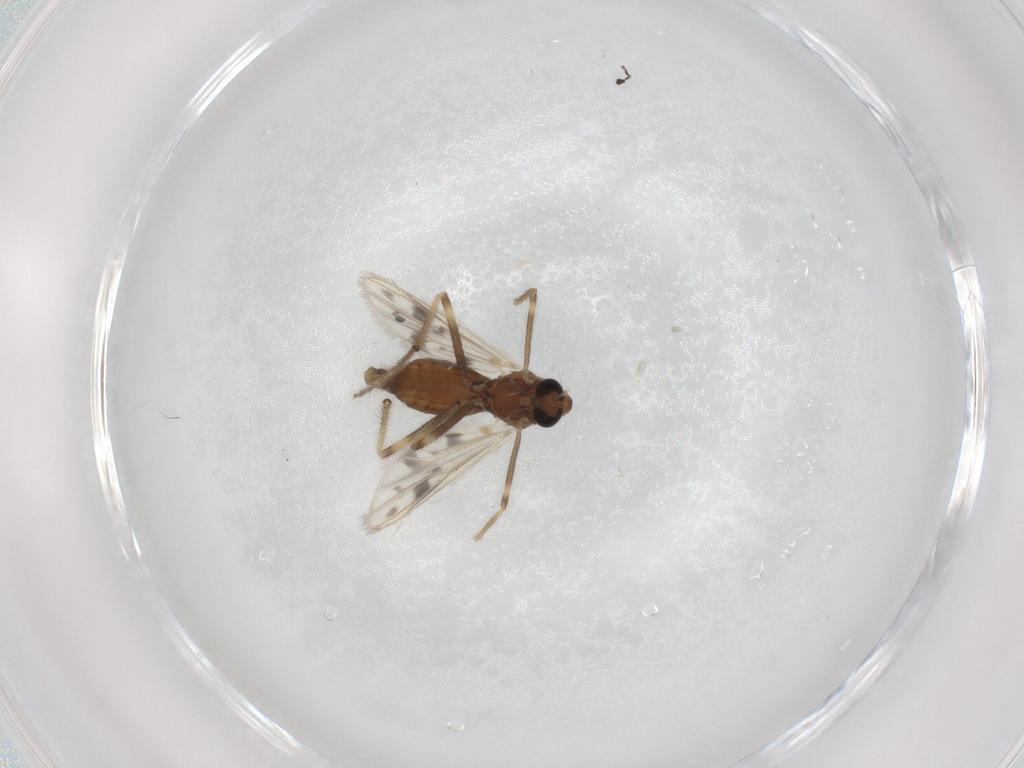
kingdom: Animalia
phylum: Arthropoda
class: Insecta
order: Diptera
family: Chironomidae
